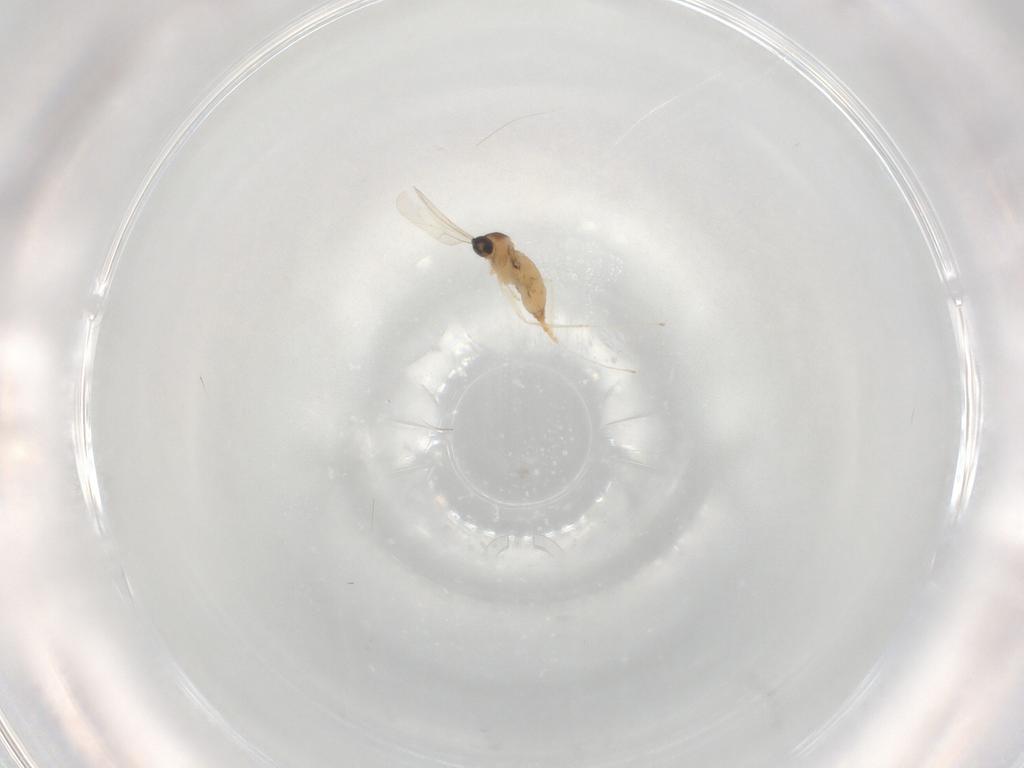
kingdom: Animalia
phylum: Arthropoda
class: Insecta
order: Diptera
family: Cecidomyiidae
